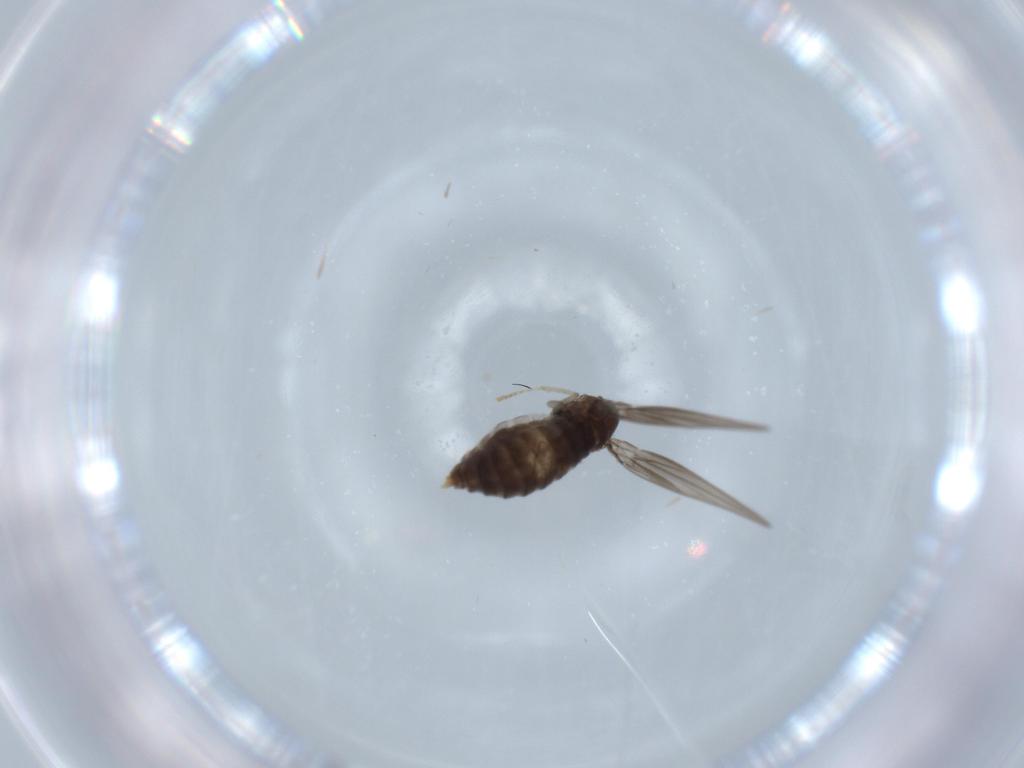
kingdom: Animalia
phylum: Arthropoda
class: Insecta
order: Diptera
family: Psychodidae
